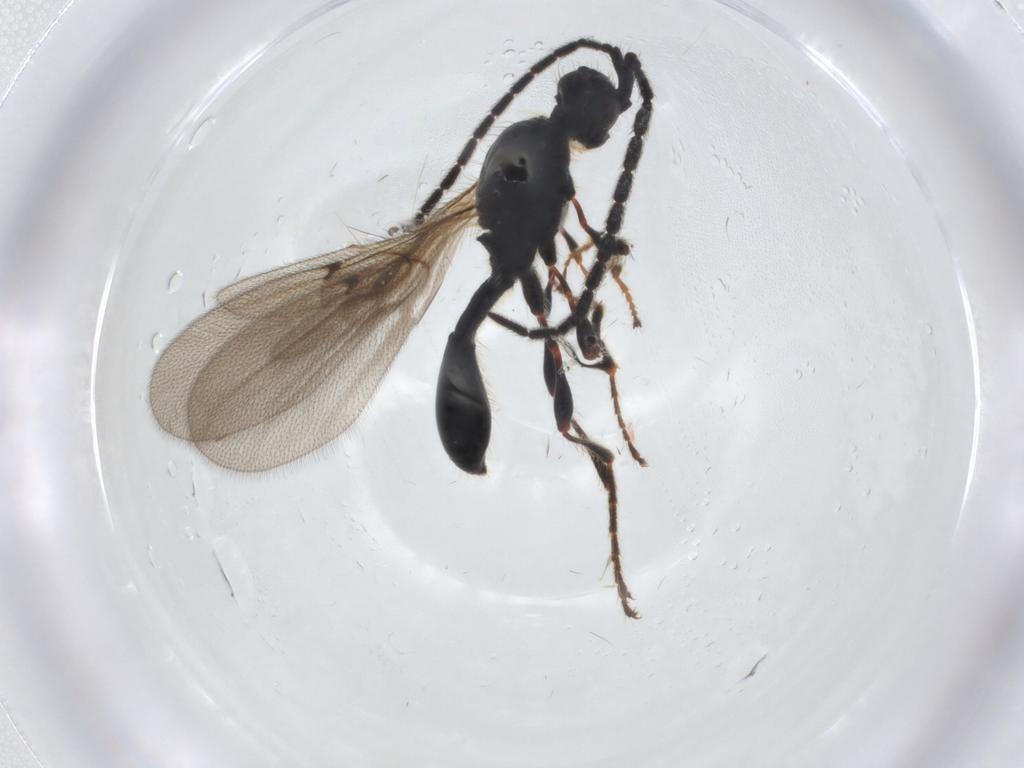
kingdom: Animalia
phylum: Arthropoda
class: Insecta
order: Hymenoptera
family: Diapriidae
